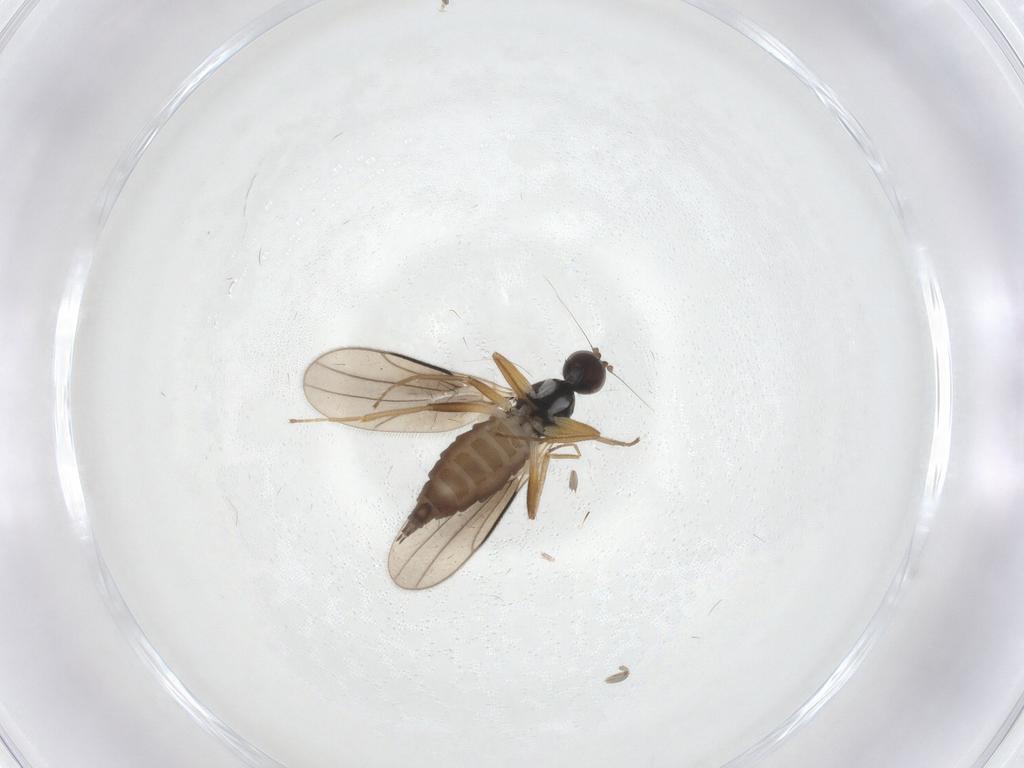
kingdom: Animalia
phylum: Arthropoda
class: Insecta
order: Diptera
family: Hybotidae
